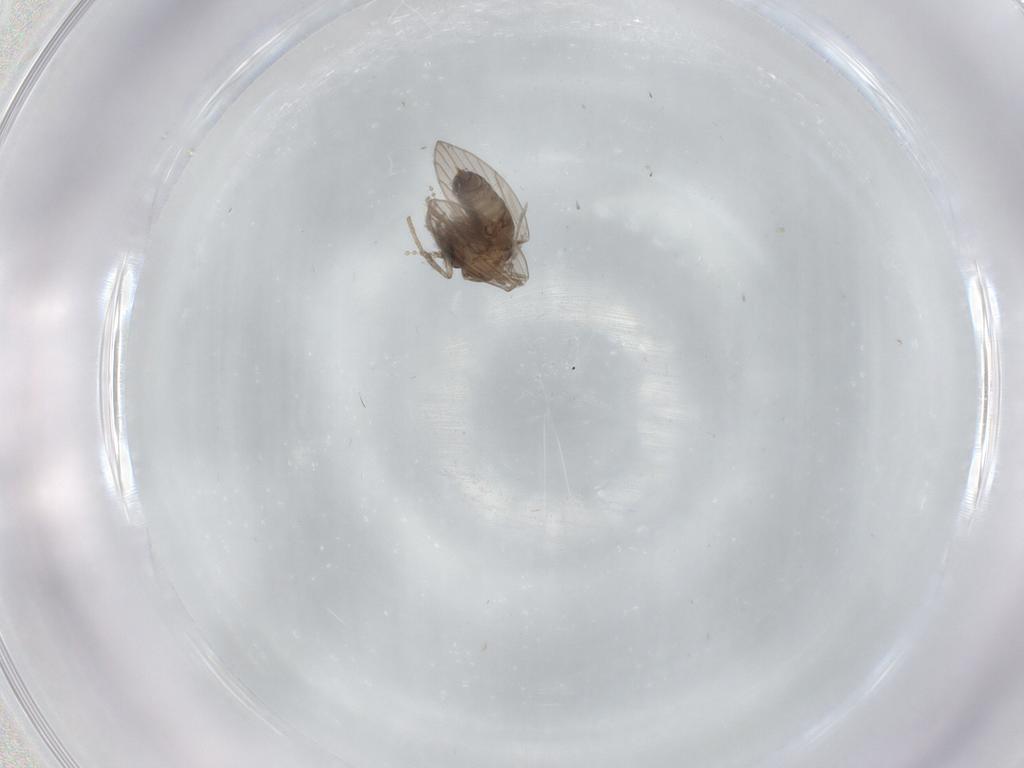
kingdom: Animalia
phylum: Arthropoda
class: Insecta
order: Diptera
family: Psychodidae
